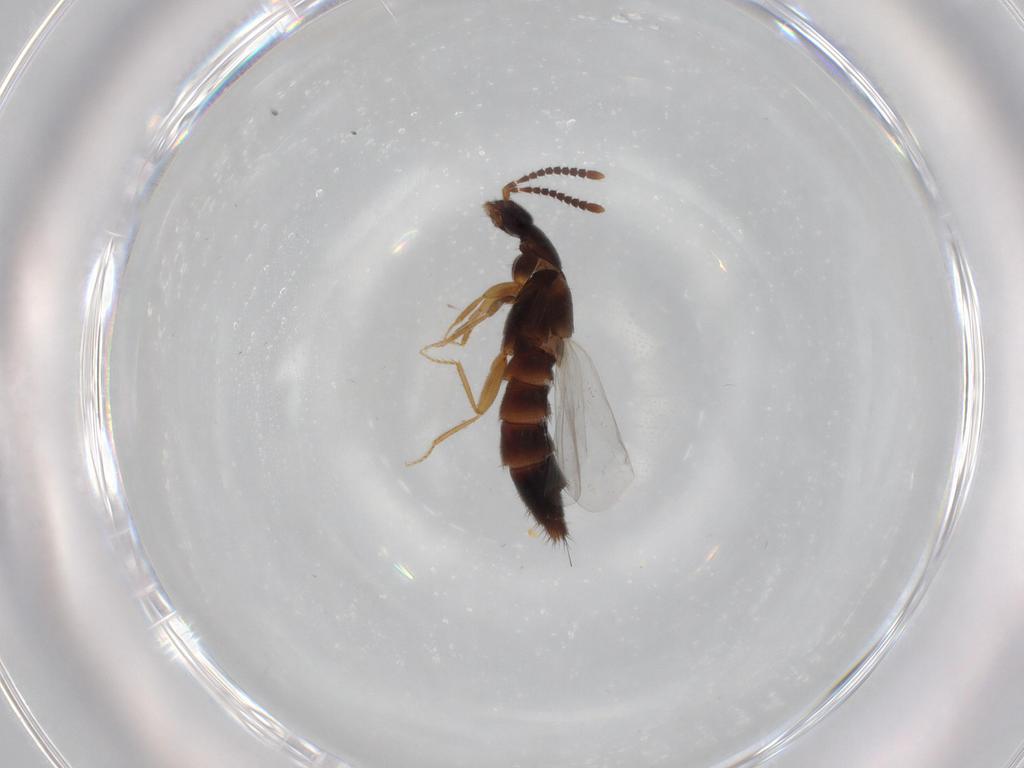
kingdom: Animalia
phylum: Arthropoda
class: Insecta
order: Coleoptera
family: Staphylinidae
